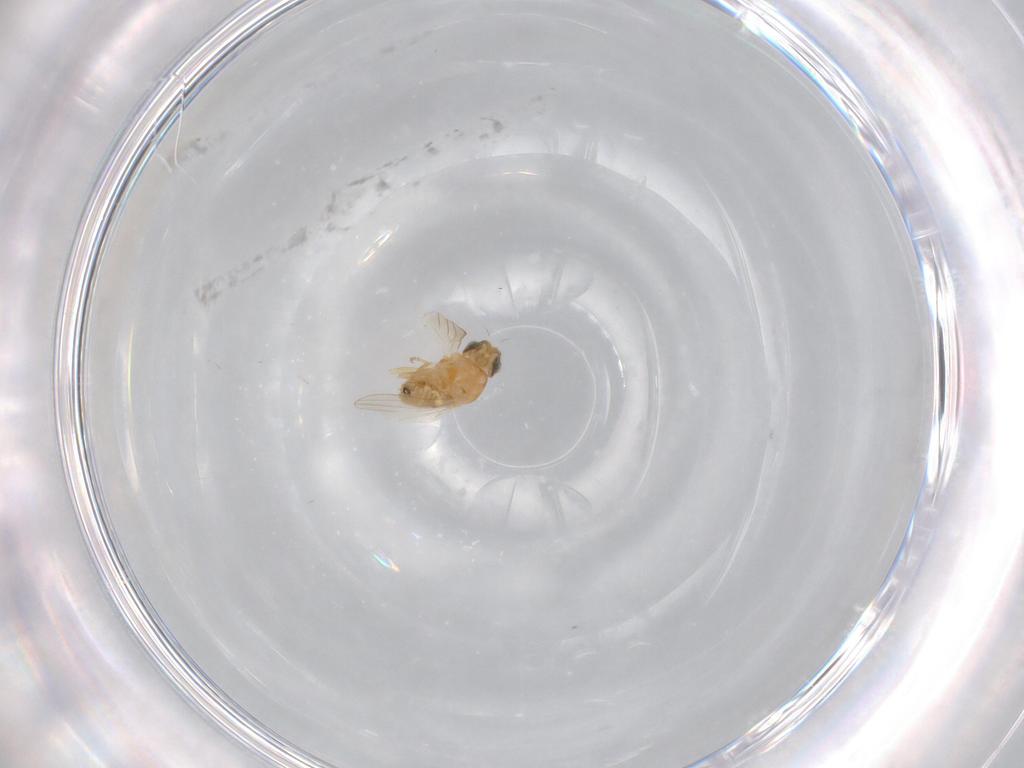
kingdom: Animalia
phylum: Arthropoda
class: Insecta
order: Diptera
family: Chyromyidae
